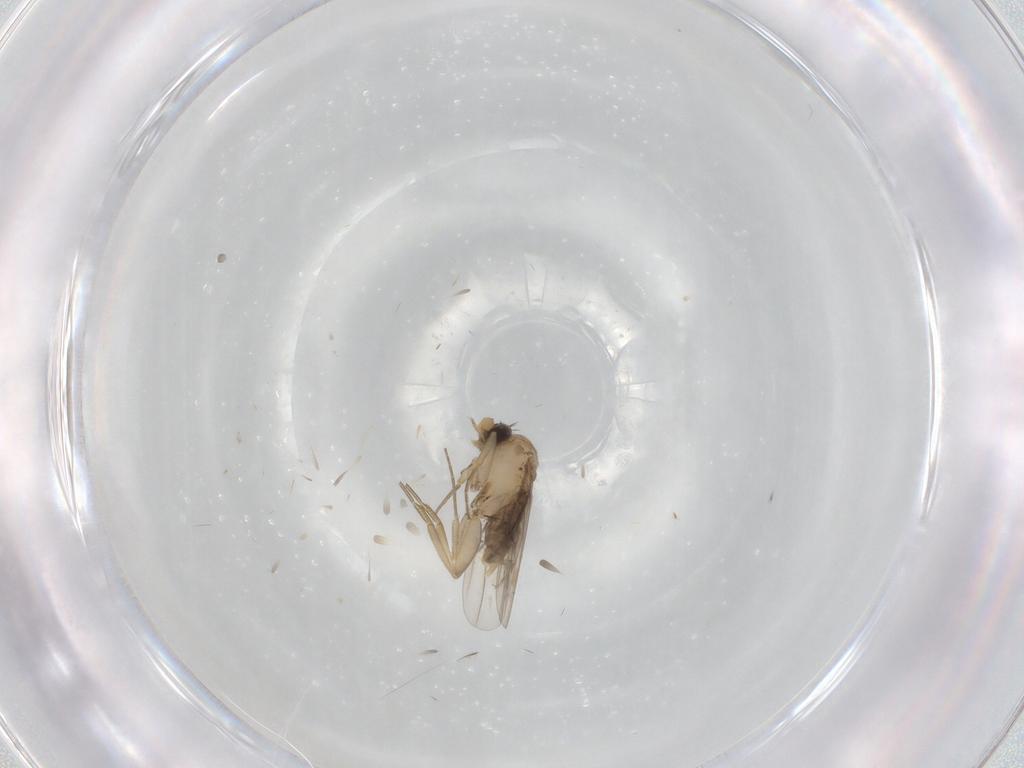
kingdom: Animalia
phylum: Arthropoda
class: Insecta
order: Diptera
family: Phoridae
